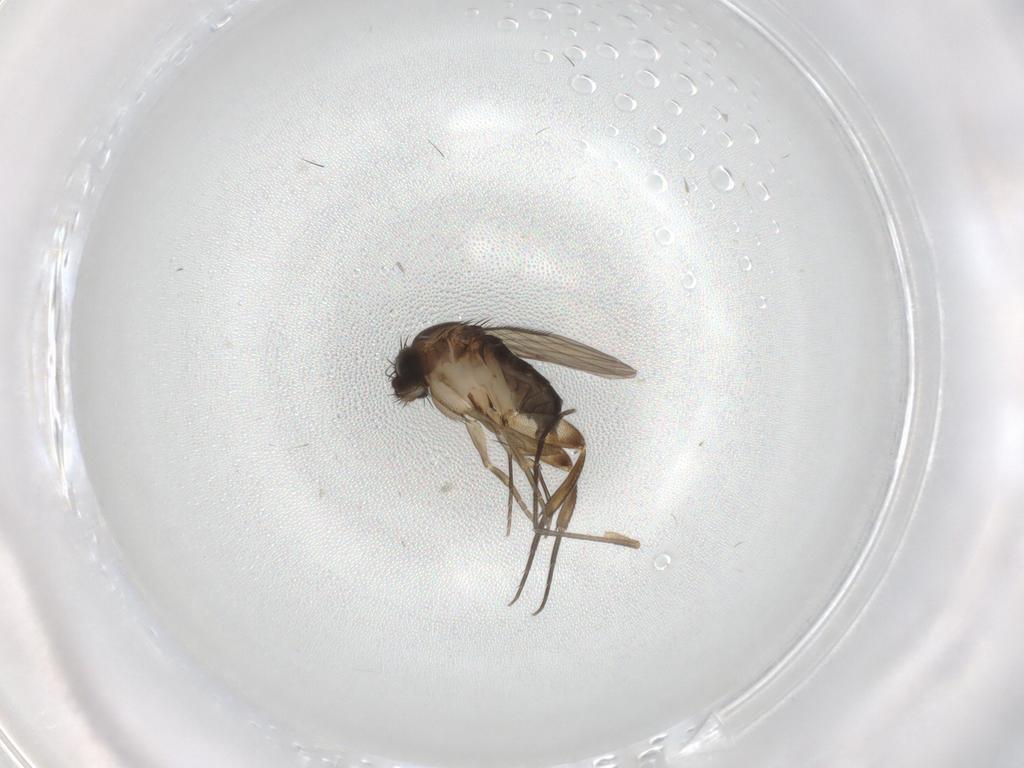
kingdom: Animalia
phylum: Arthropoda
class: Insecta
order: Diptera
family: Phoridae
